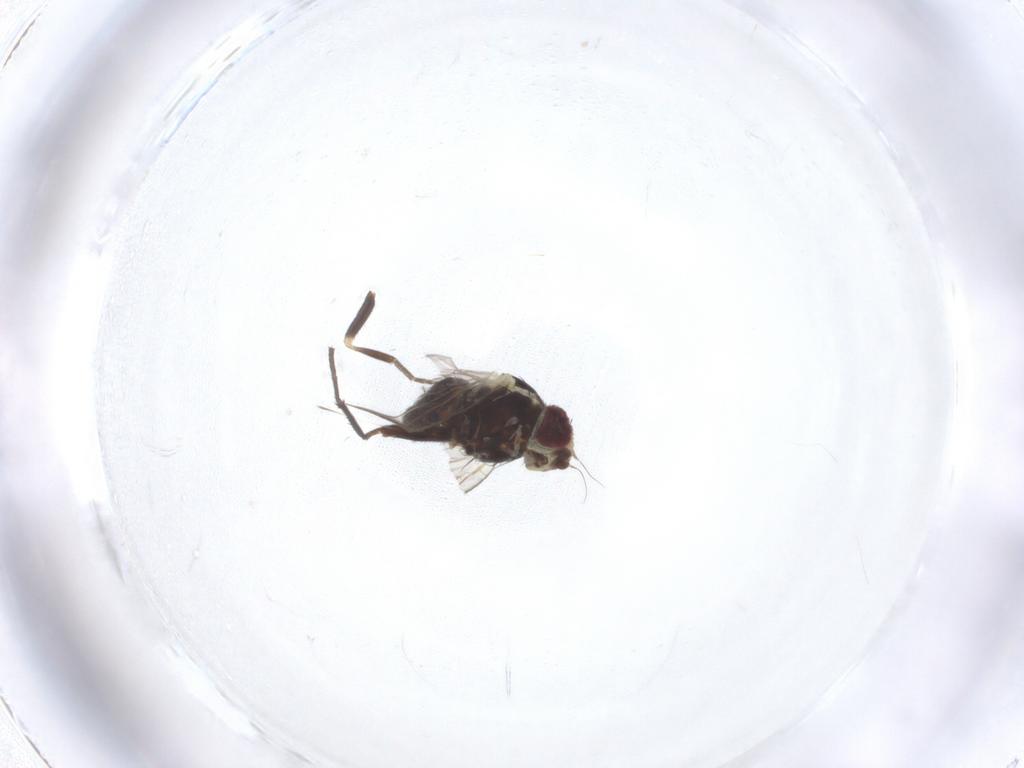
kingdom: Animalia
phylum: Arthropoda
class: Insecta
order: Diptera
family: Agromyzidae
